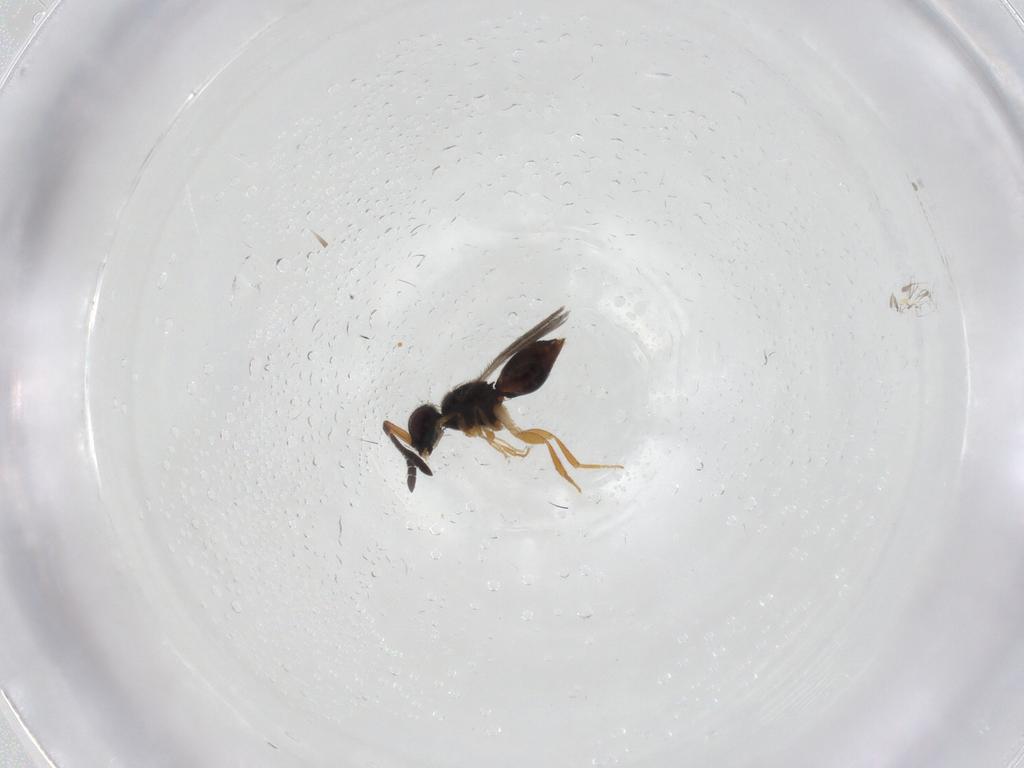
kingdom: Animalia
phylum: Arthropoda
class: Insecta
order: Hymenoptera
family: Ceraphronidae
